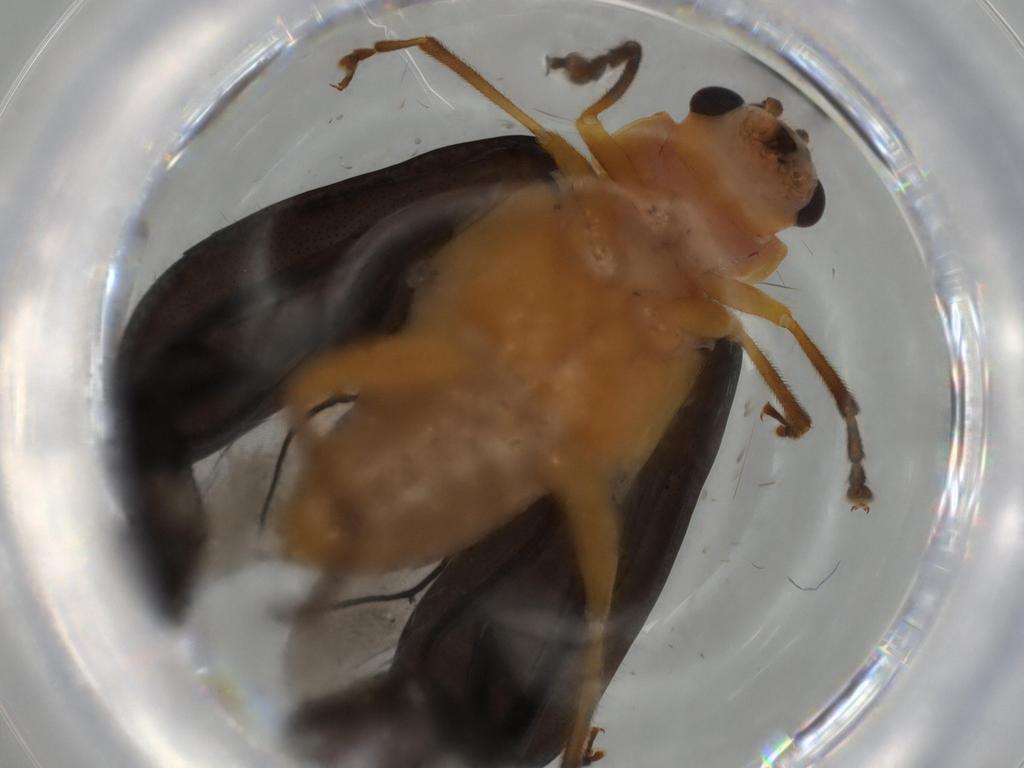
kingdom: Animalia
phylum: Arthropoda
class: Insecta
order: Coleoptera
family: Chrysomelidae
